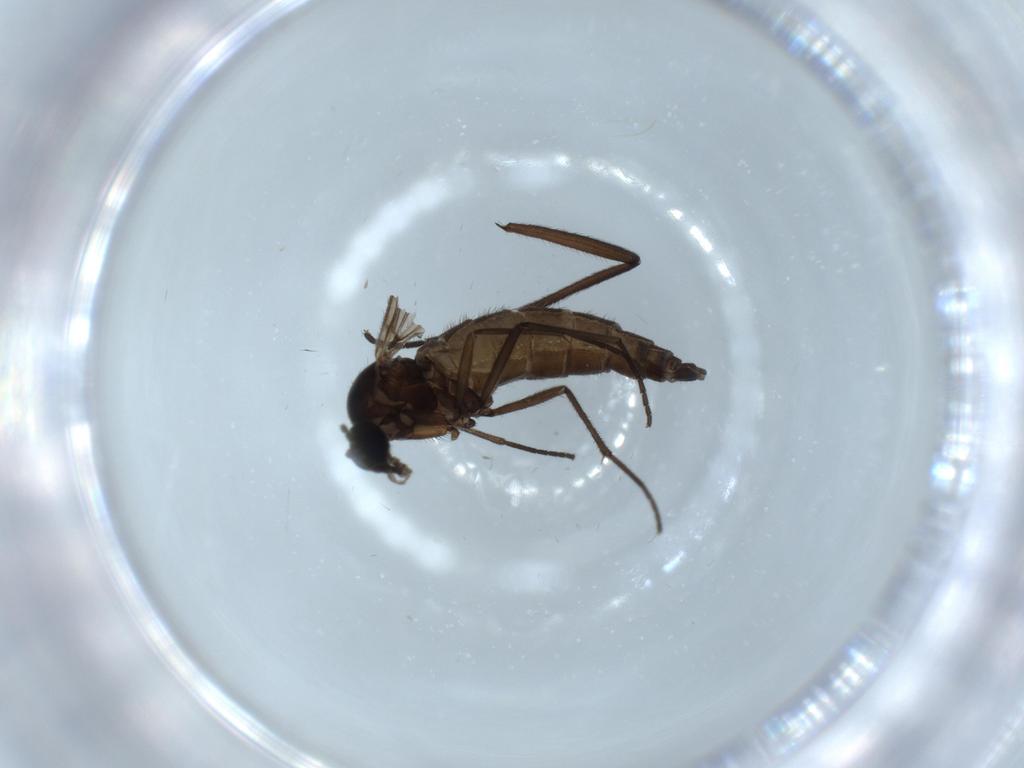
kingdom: Animalia
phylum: Arthropoda
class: Insecta
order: Diptera
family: Sciaridae
